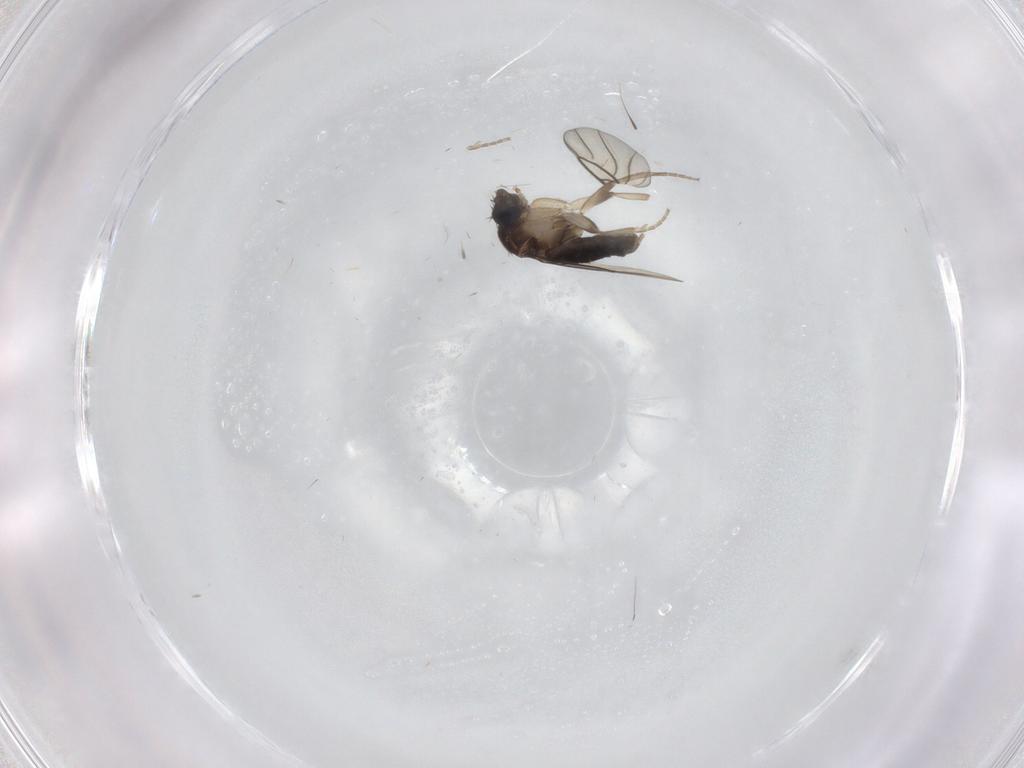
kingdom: Animalia
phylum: Arthropoda
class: Insecta
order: Diptera
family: Phoridae
